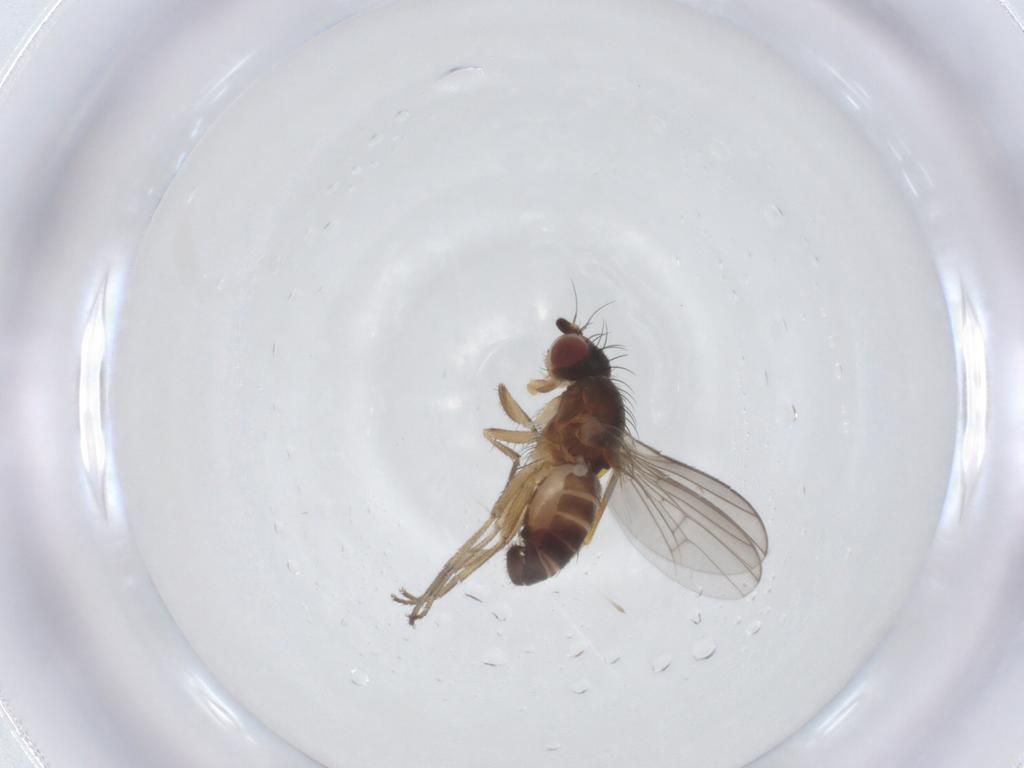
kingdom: Animalia
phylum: Arthropoda
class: Insecta
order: Diptera
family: Heleomyzidae
